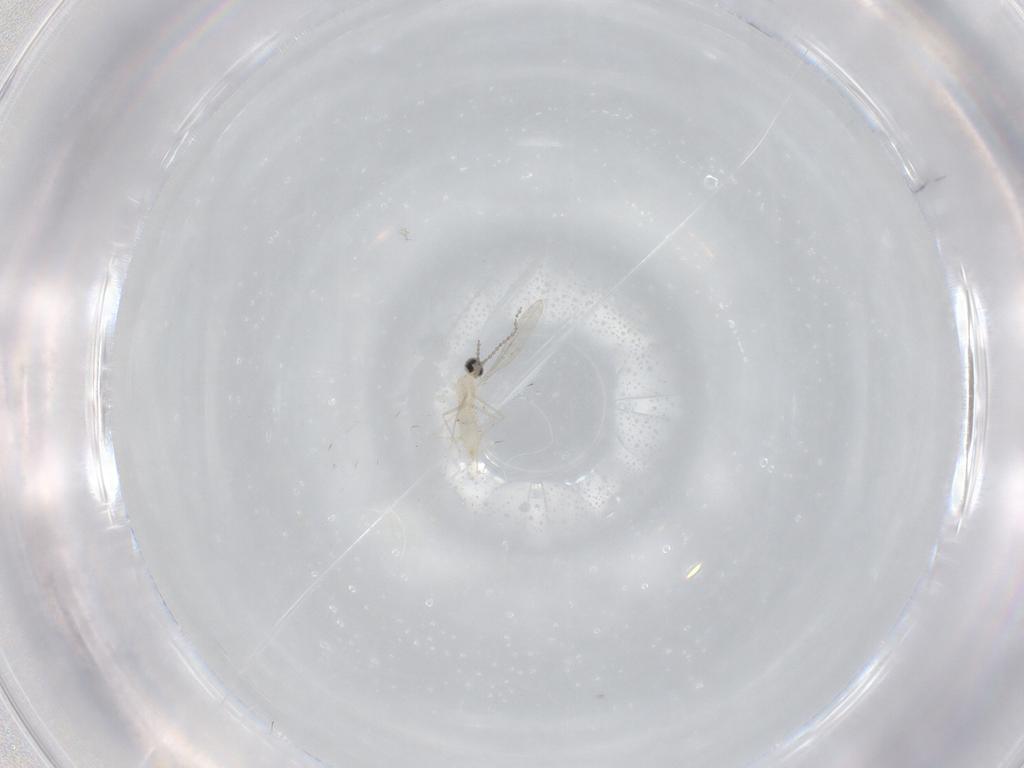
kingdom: Animalia
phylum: Arthropoda
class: Insecta
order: Diptera
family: Cecidomyiidae
